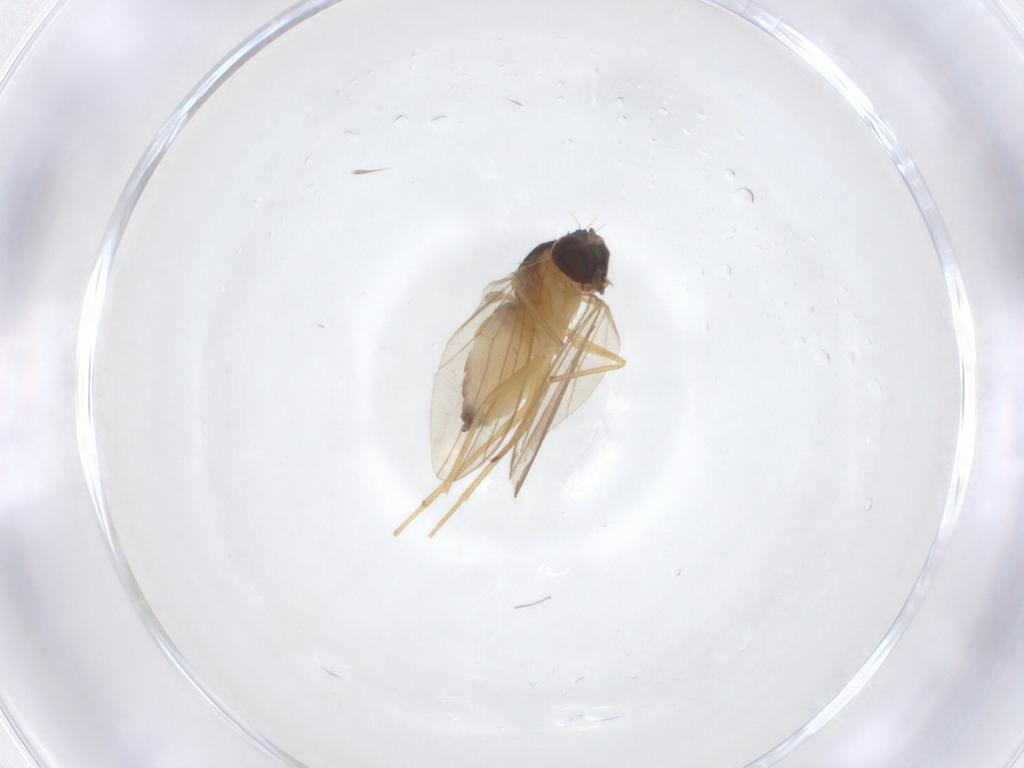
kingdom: Animalia
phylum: Arthropoda
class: Insecta
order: Diptera
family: Dolichopodidae
